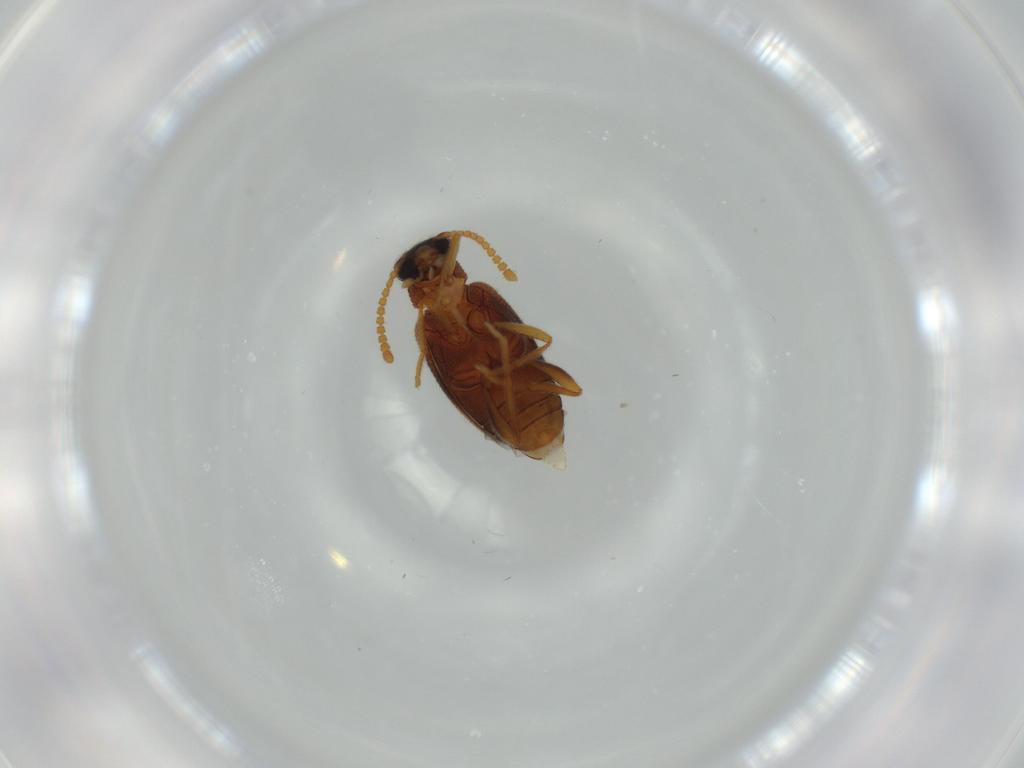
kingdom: Animalia
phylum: Arthropoda
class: Insecta
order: Coleoptera
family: Aderidae
